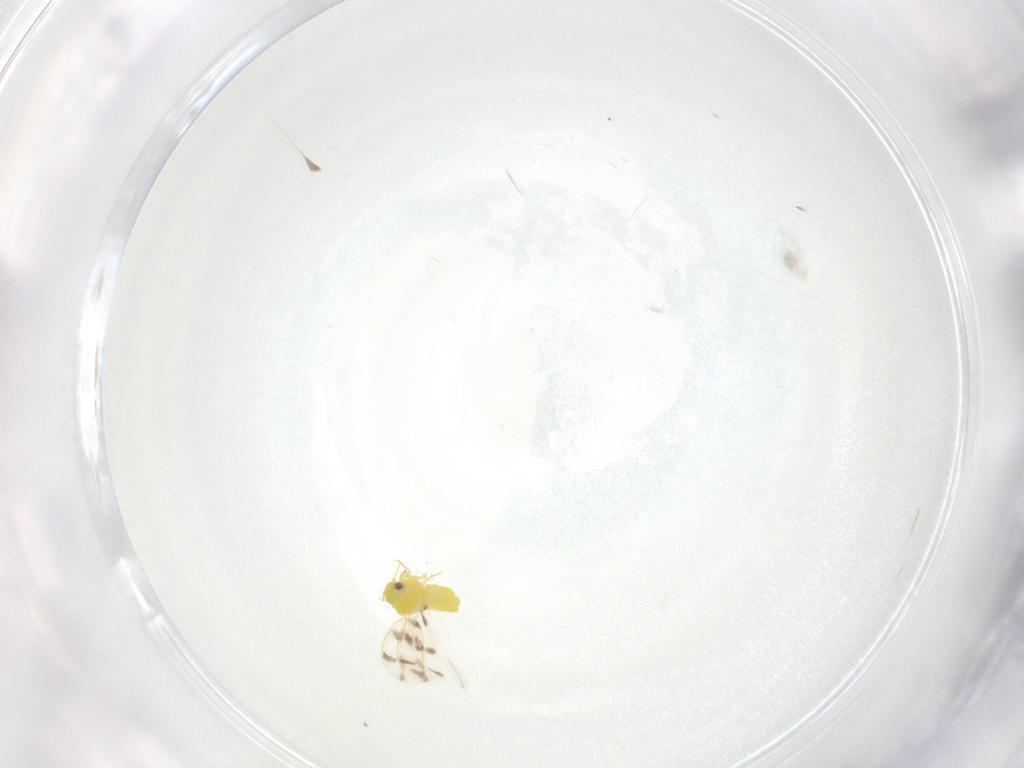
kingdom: Animalia
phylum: Arthropoda
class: Insecta
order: Hemiptera
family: Aleyrodidae
